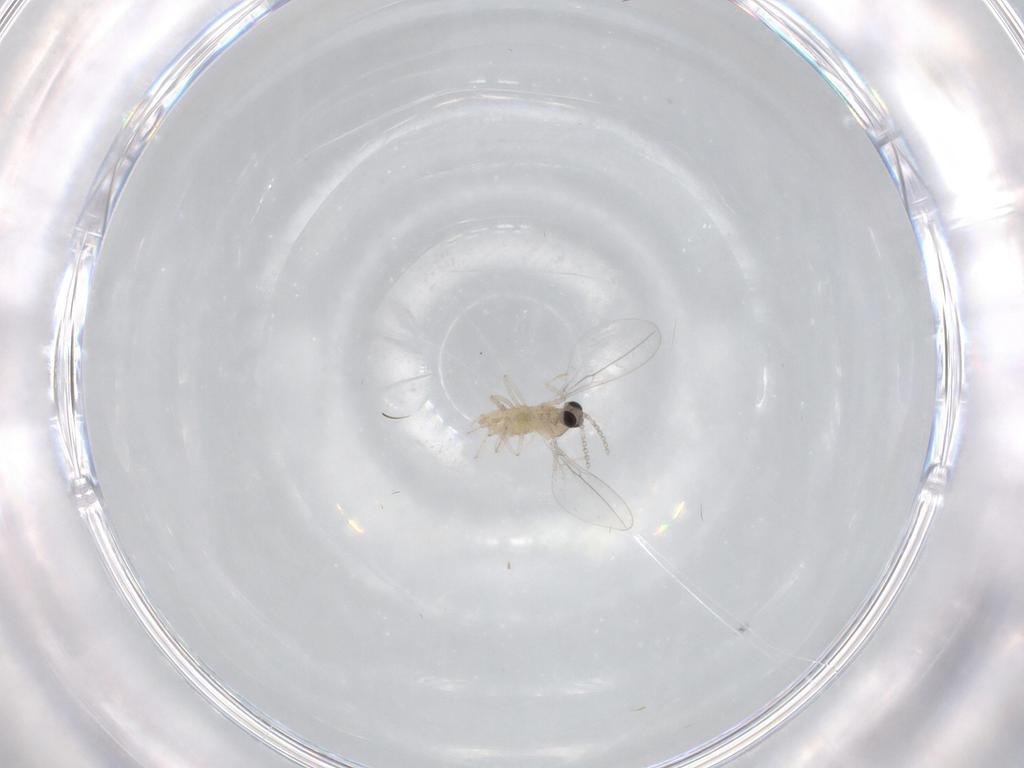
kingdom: Animalia
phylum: Arthropoda
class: Insecta
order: Diptera
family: Cecidomyiidae
